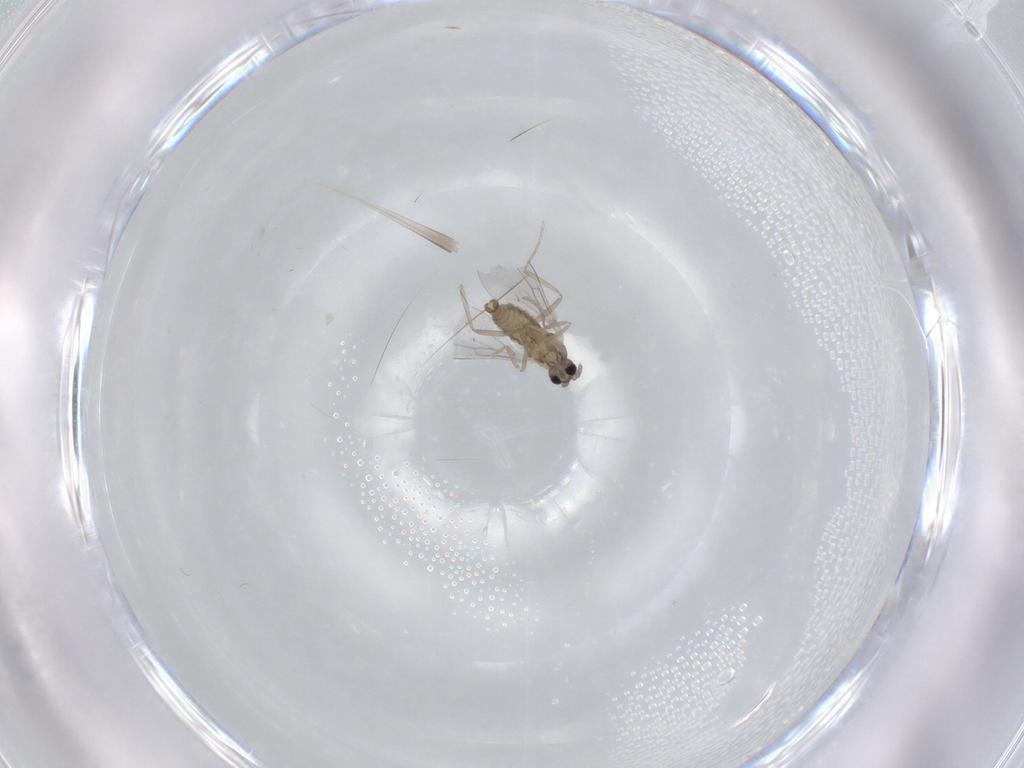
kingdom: Animalia
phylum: Arthropoda
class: Insecta
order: Diptera
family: Cecidomyiidae
